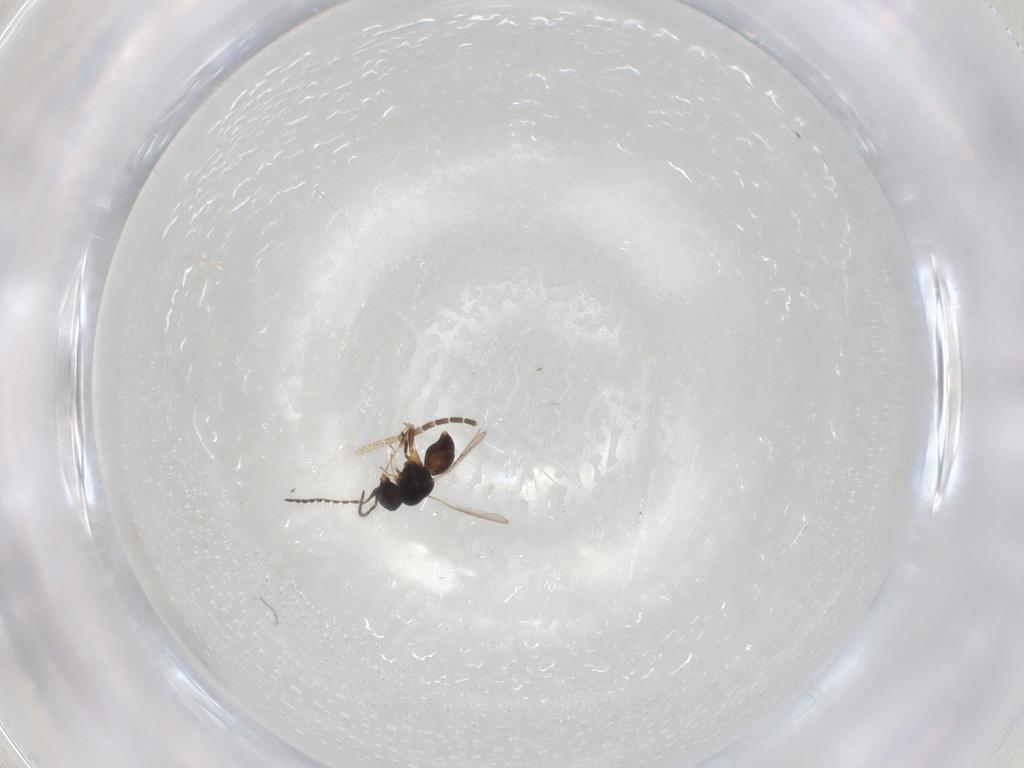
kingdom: Animalia
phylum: Arthropoda
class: Insecta
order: Hymenoptera
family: Ceraphronidae
